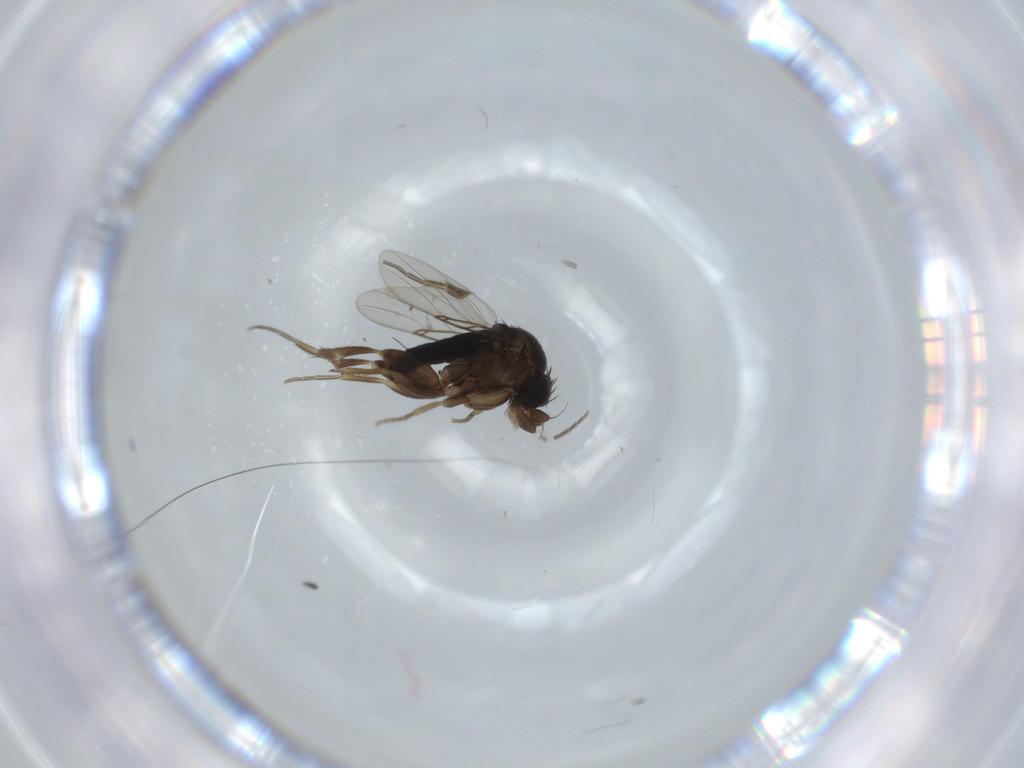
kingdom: Animalia
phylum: Arthropoda
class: Insecta
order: Diptera
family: Phoridae
